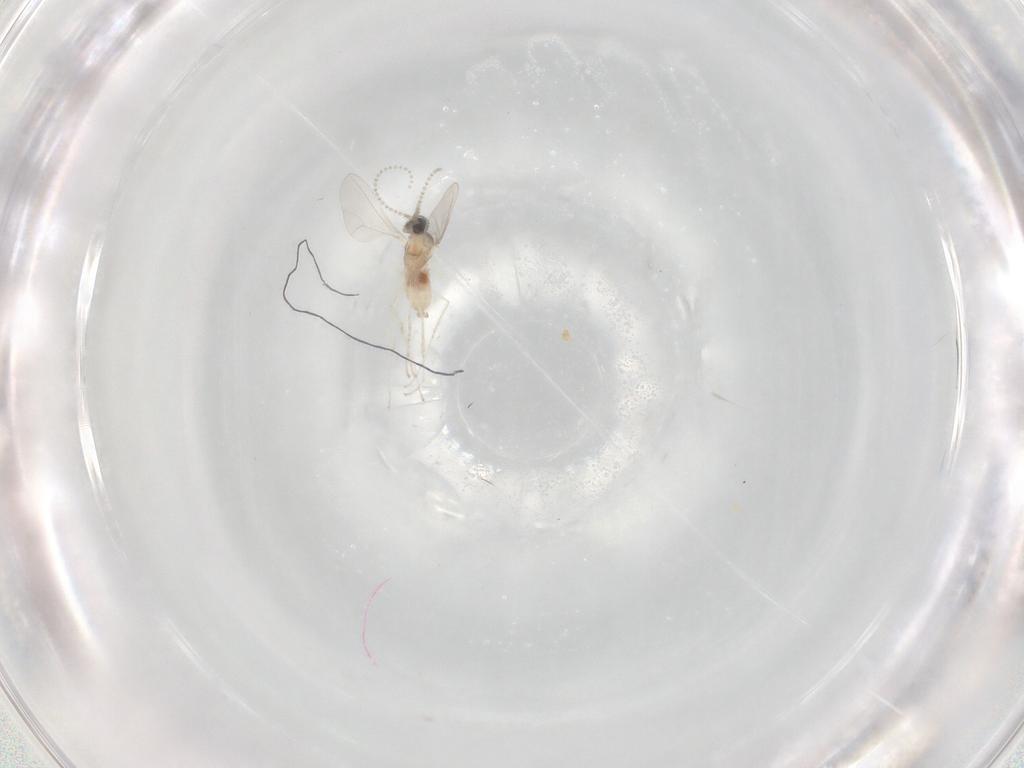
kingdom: Animalia
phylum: Arthropoda
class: Insecta
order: Diptera
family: Cecidomyiidae
